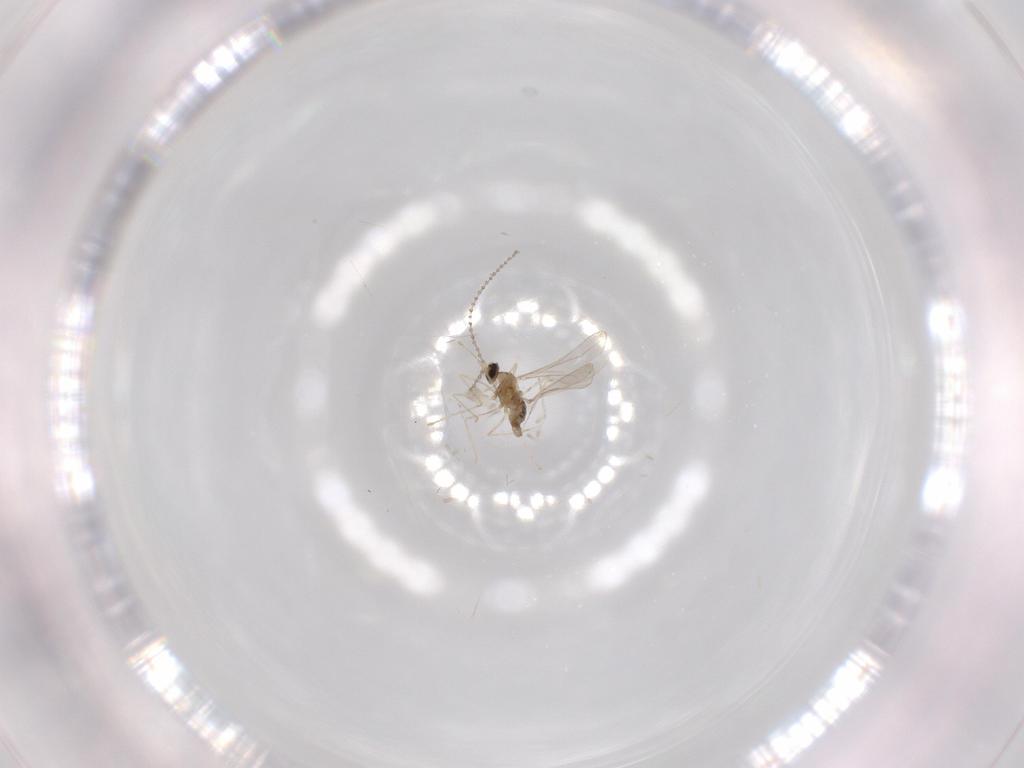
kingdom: Animalia
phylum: Arthropoda
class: Insecta
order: Diptera
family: Cecidomyiidae
